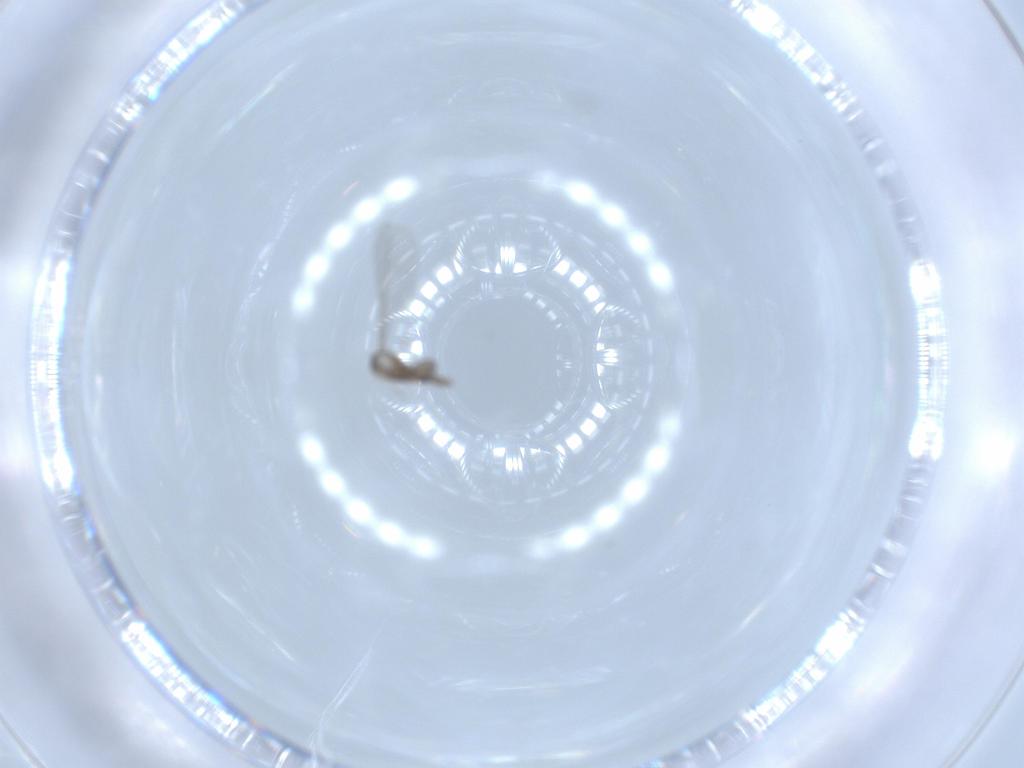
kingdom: Animalia
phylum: Arthropoda
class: Insecta
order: Diptera
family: Cecidomyiidae
